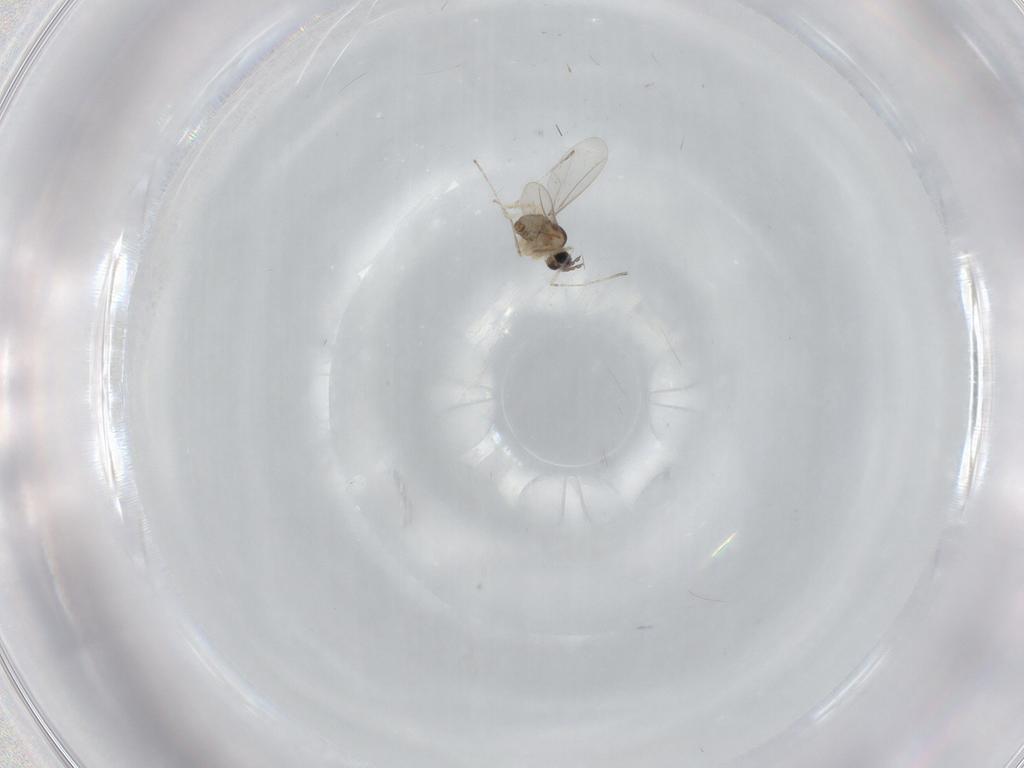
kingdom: Animalia
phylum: Arthropoda
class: Insecta
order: Diptera
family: Cecidomyiidae
